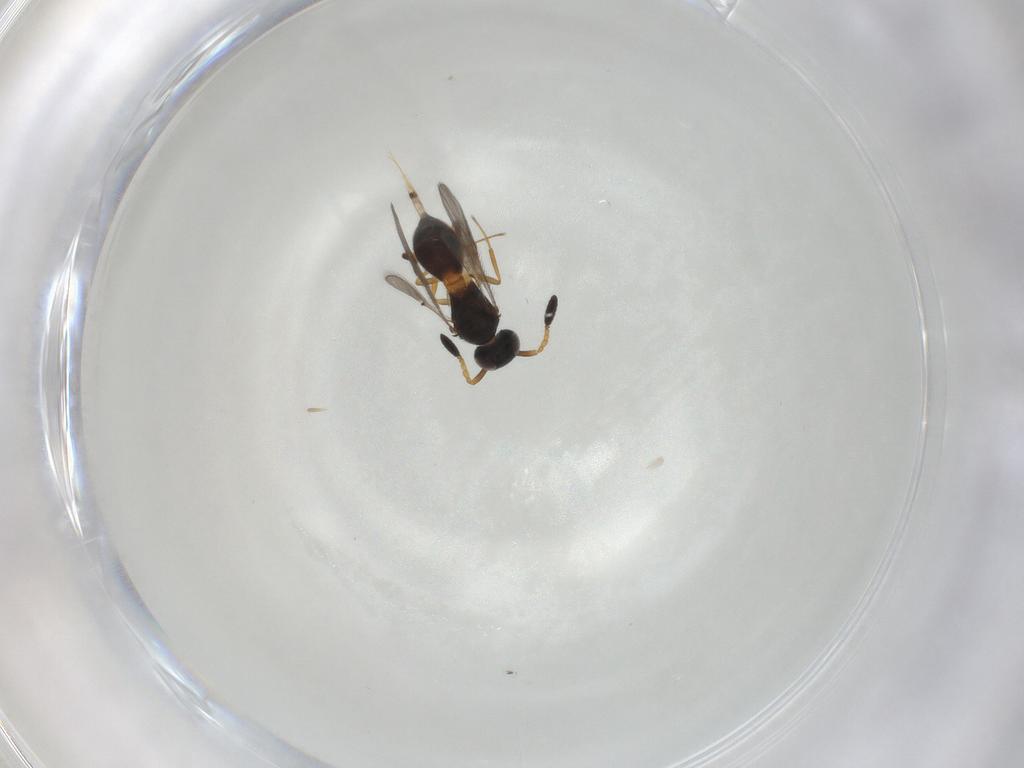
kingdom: Animalia
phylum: Arthropoda
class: Insecta
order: Hymenoptera
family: Scelionidae
